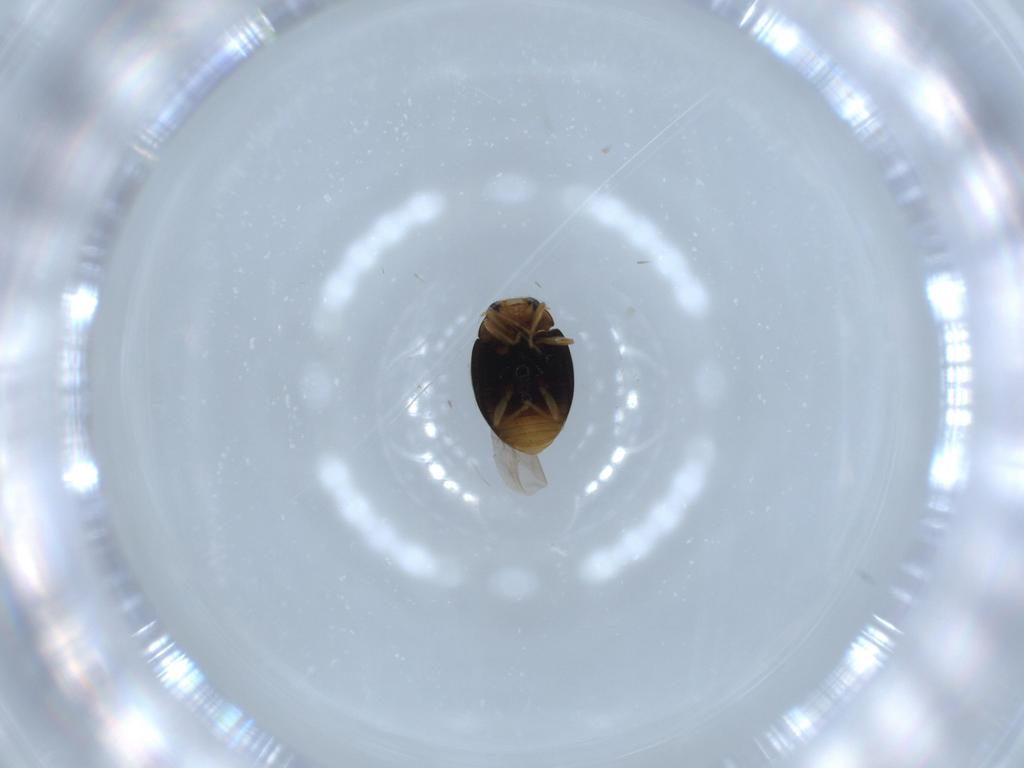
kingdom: Animalia
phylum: Arthropoda
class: Insecta
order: Coleoptera
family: Coccinellidae
